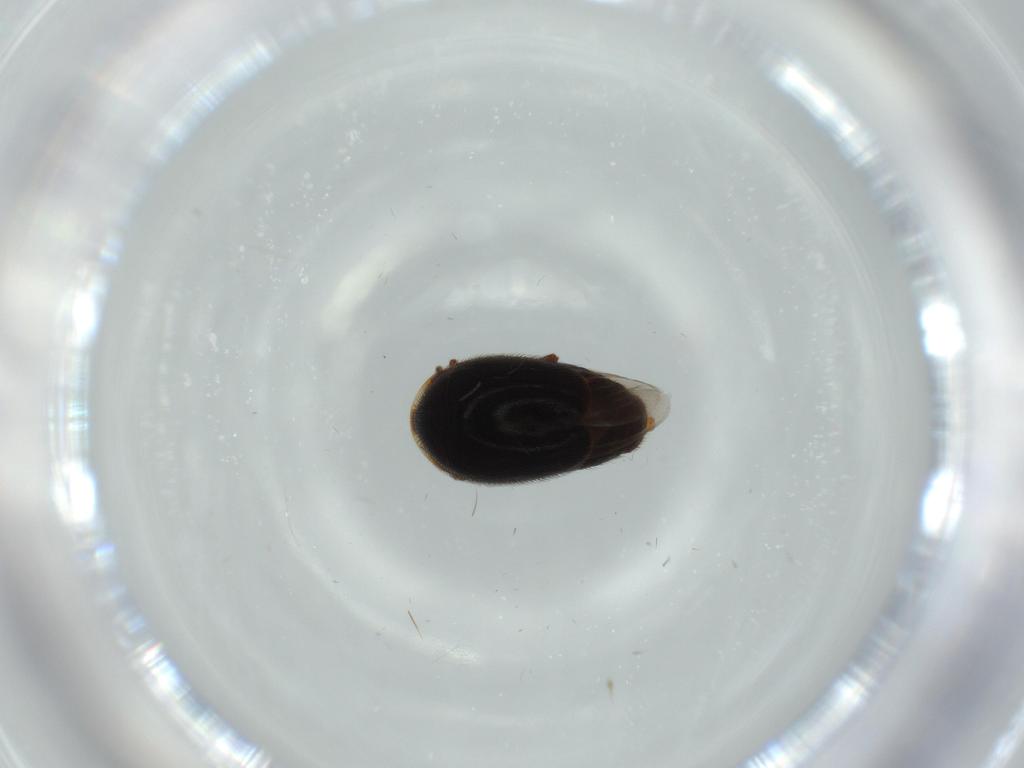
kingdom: Animalia
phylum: Arthropoda
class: Insecta
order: Coleoptera
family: Corylophidae
